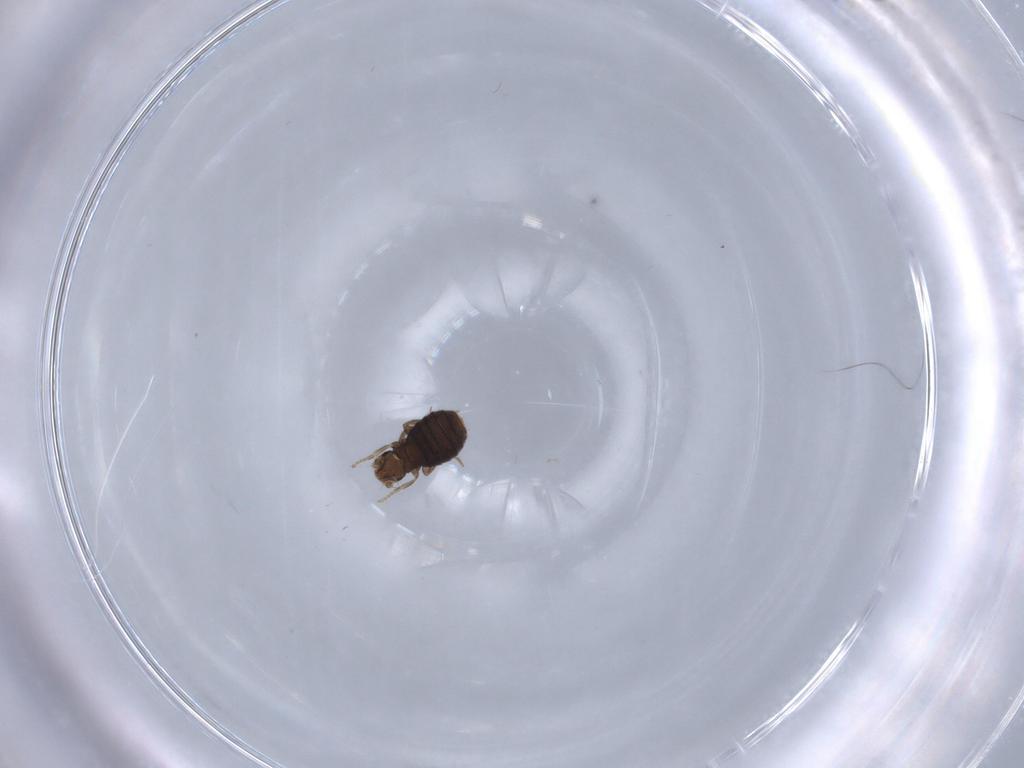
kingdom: Animalia
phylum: Arthropoda
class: Insecta
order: Diptera
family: Phoridae
